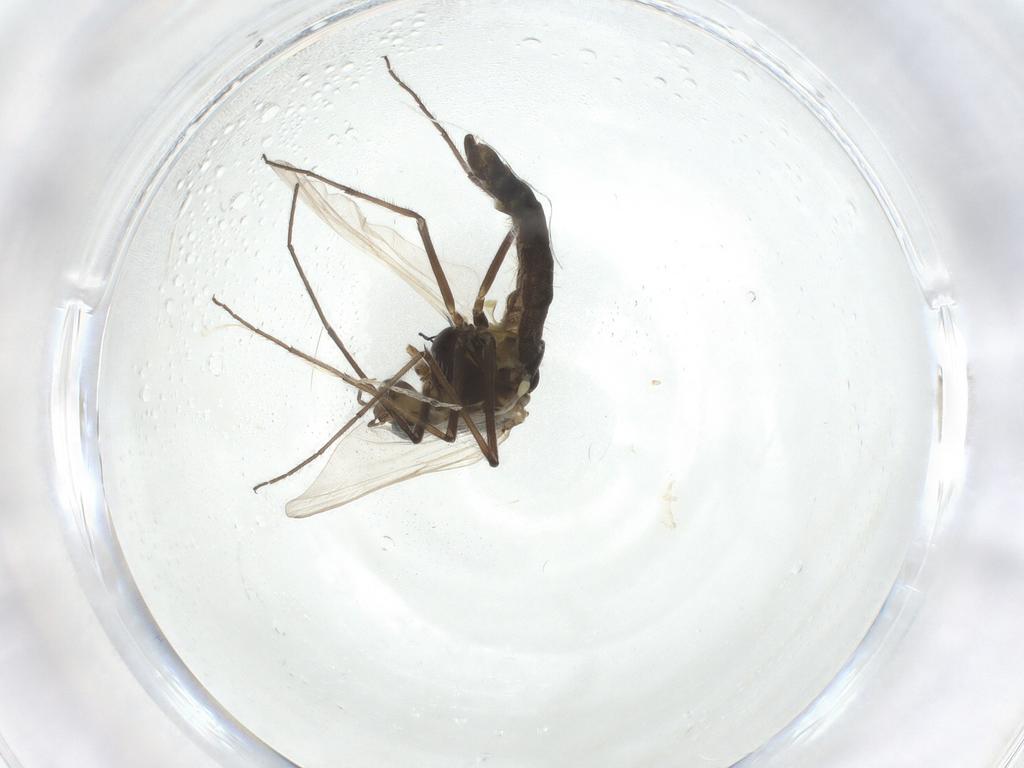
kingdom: Animalia
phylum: Arthropoda
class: Insecta
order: Diptera
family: Chironomidae
